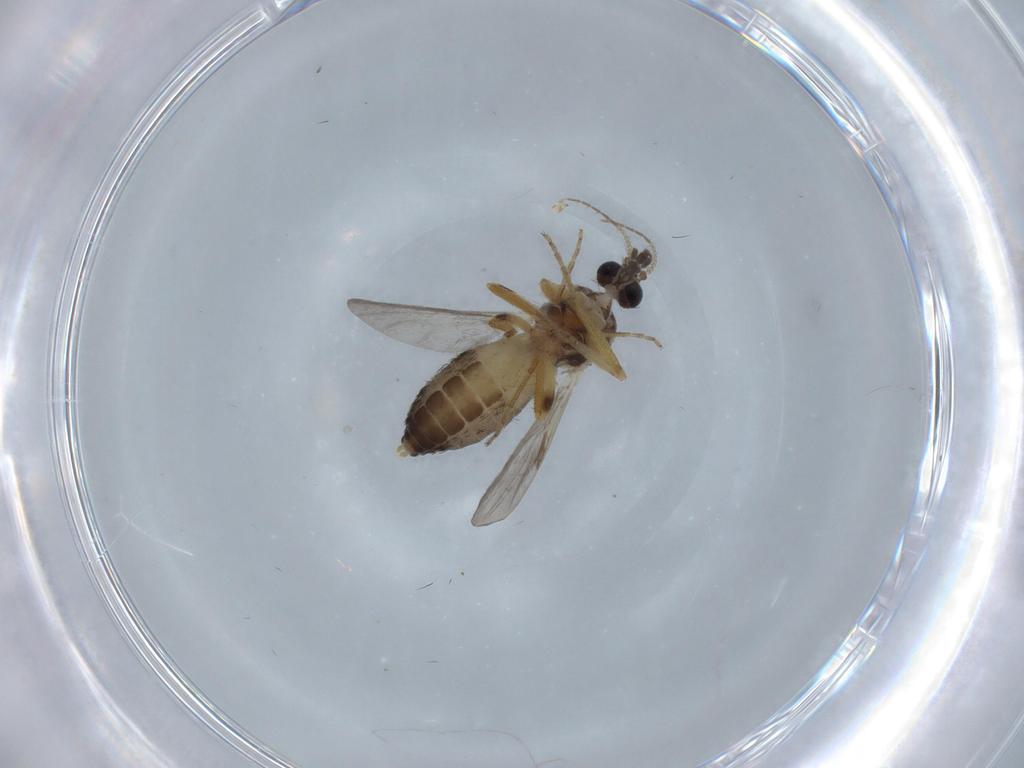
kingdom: Animalia
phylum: Arthropoda
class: Insecta
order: Diptera
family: Ceratopogonidae
